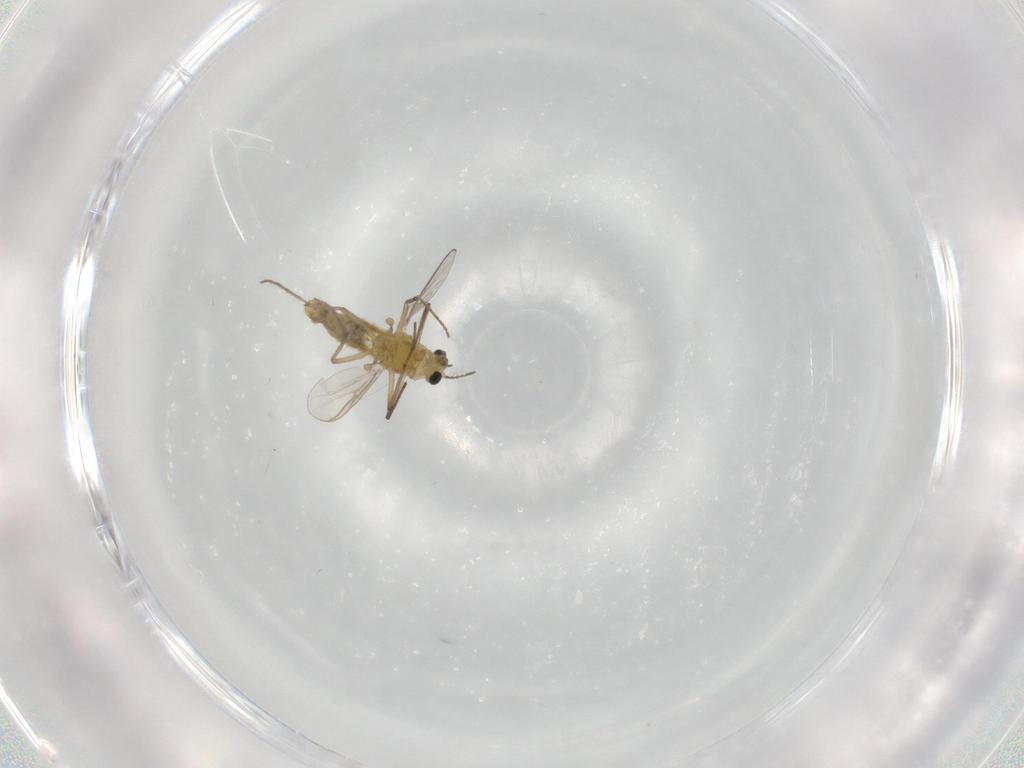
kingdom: Animalia
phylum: Arthropoda
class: Insecta
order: Diptera
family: Chironomidae
